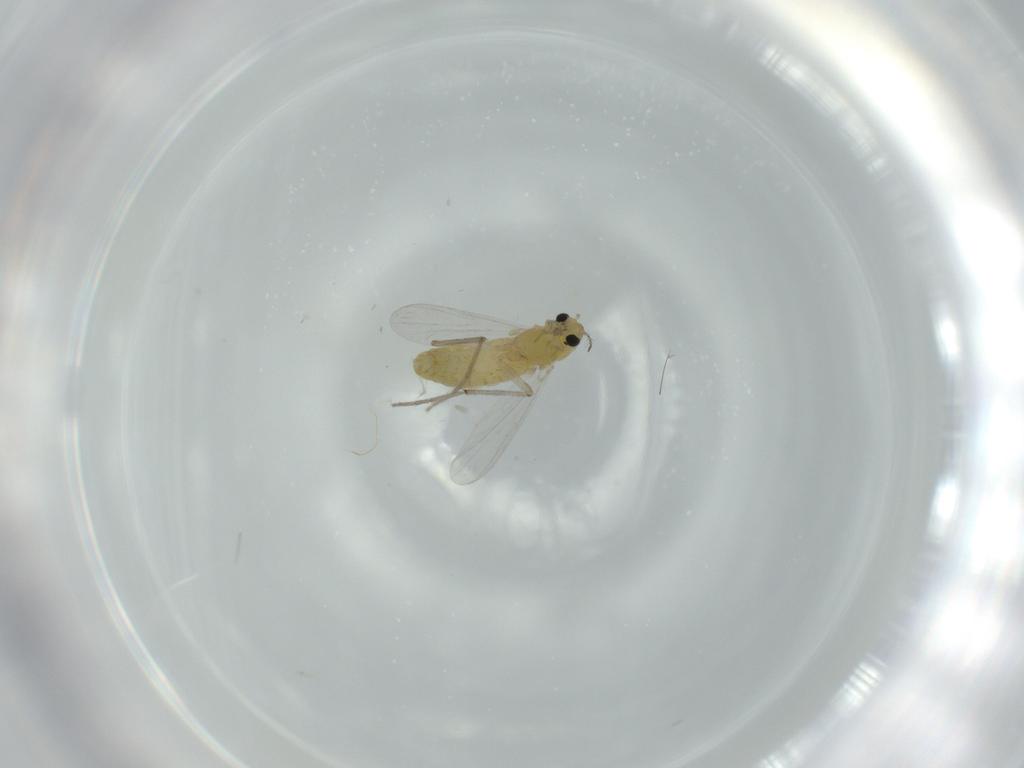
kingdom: Animalia
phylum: Arthropoda
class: Insecta
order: Diptera
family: Chironomidae
